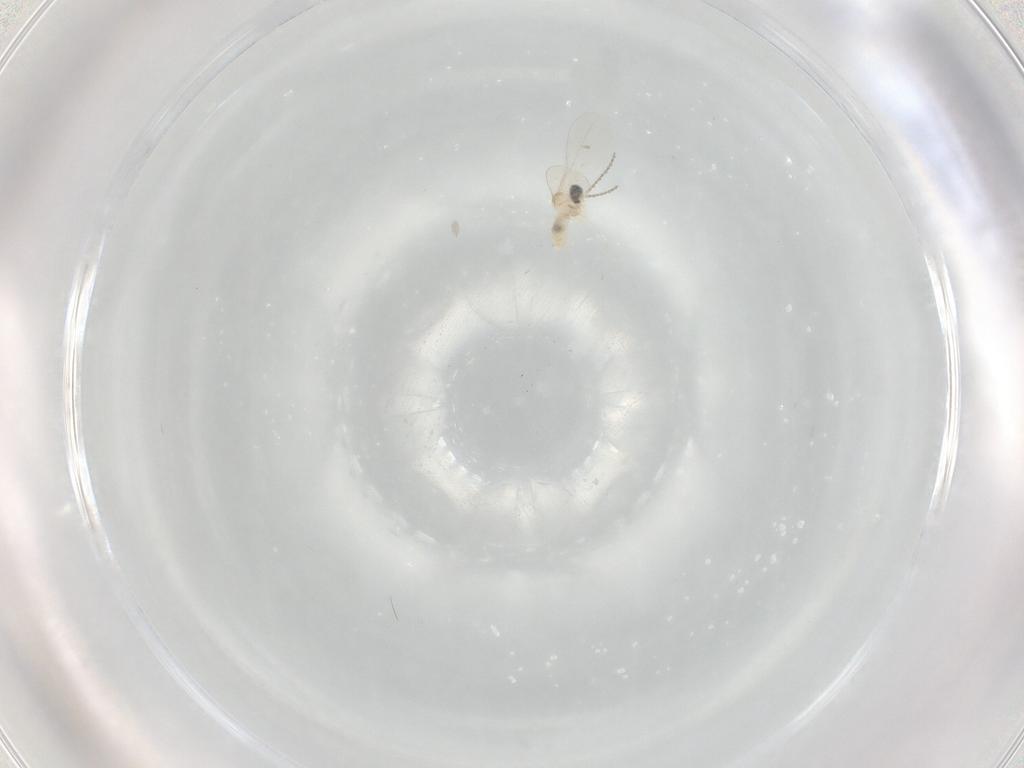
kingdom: Animalia
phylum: Arthropoda
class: Insecta
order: Diptera
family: Cecidomyiidae
